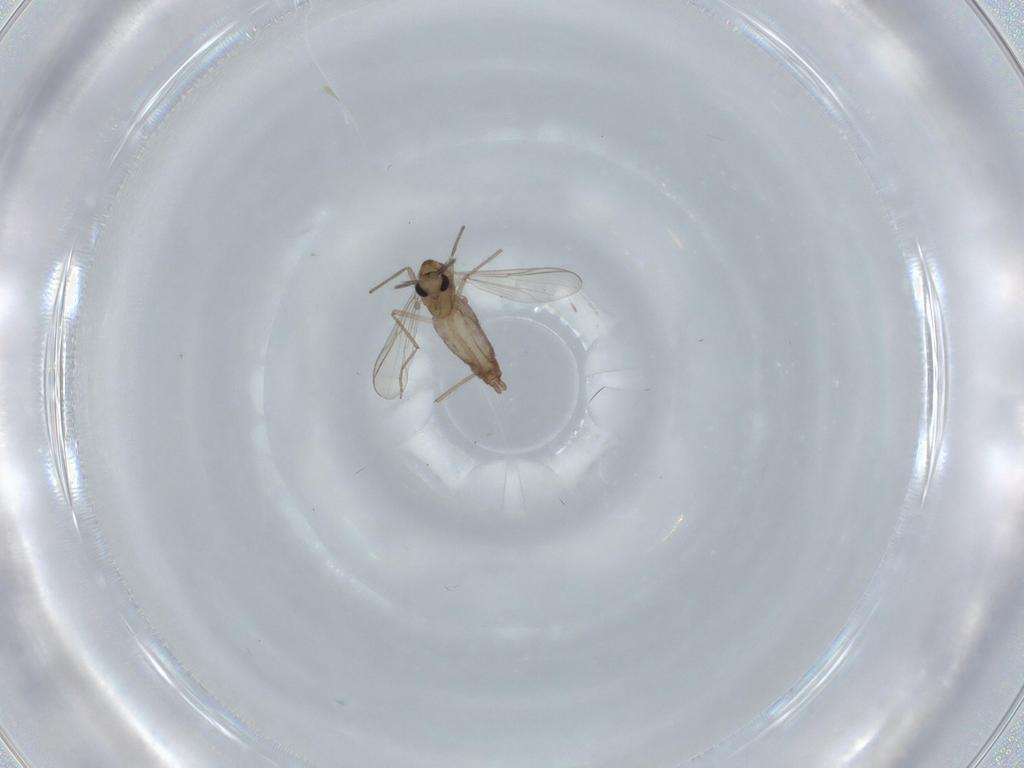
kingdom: Animalia
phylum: Arthropoda
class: Insecta
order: Diptera
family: Chironomidae
